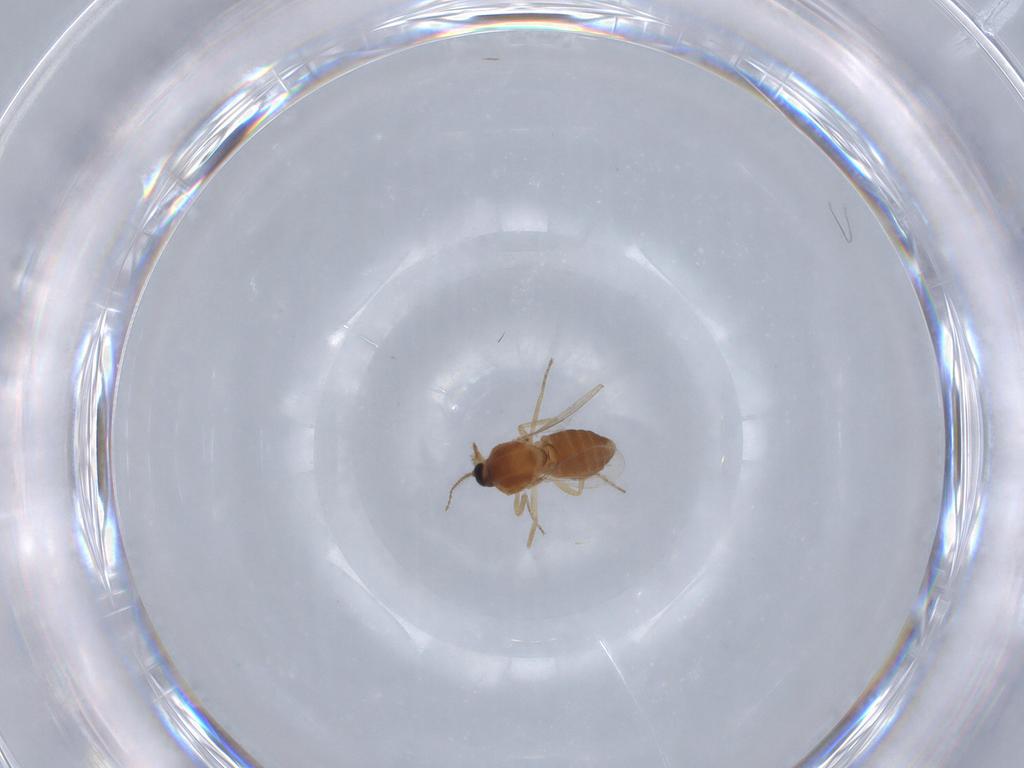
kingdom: Animalia
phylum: Arthropoda
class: Insecta
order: Diptera
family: Ceratopogonidae
